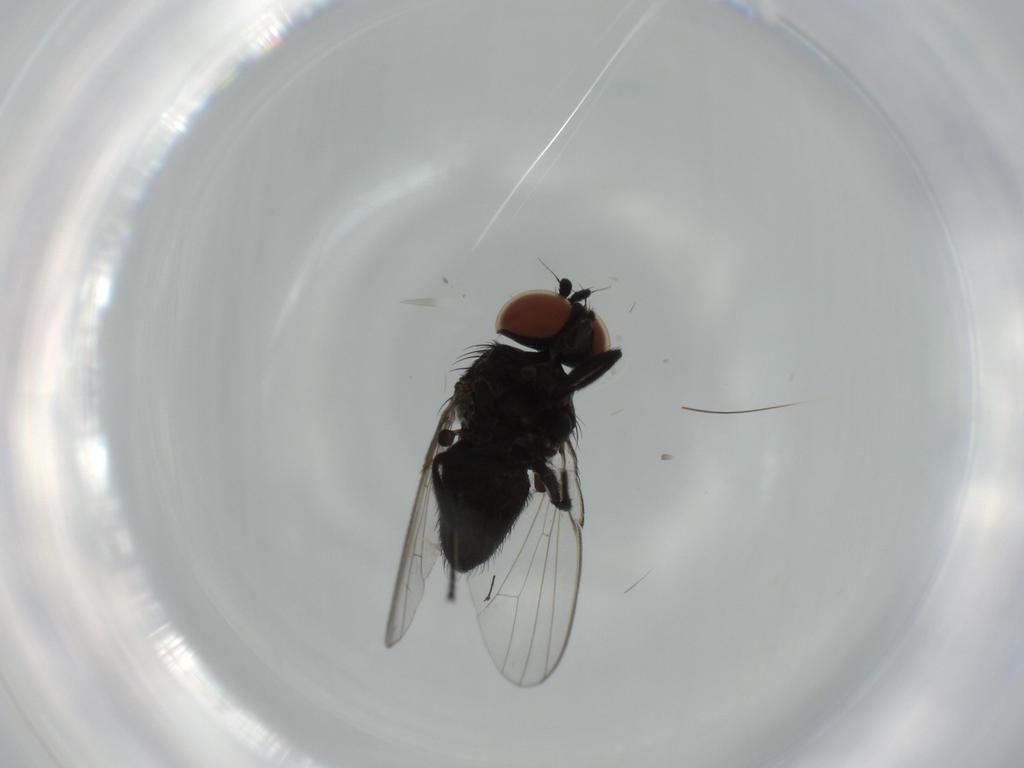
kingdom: Animalia
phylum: Arthropoda
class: Insecta
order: Diptera
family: Milichiidae
